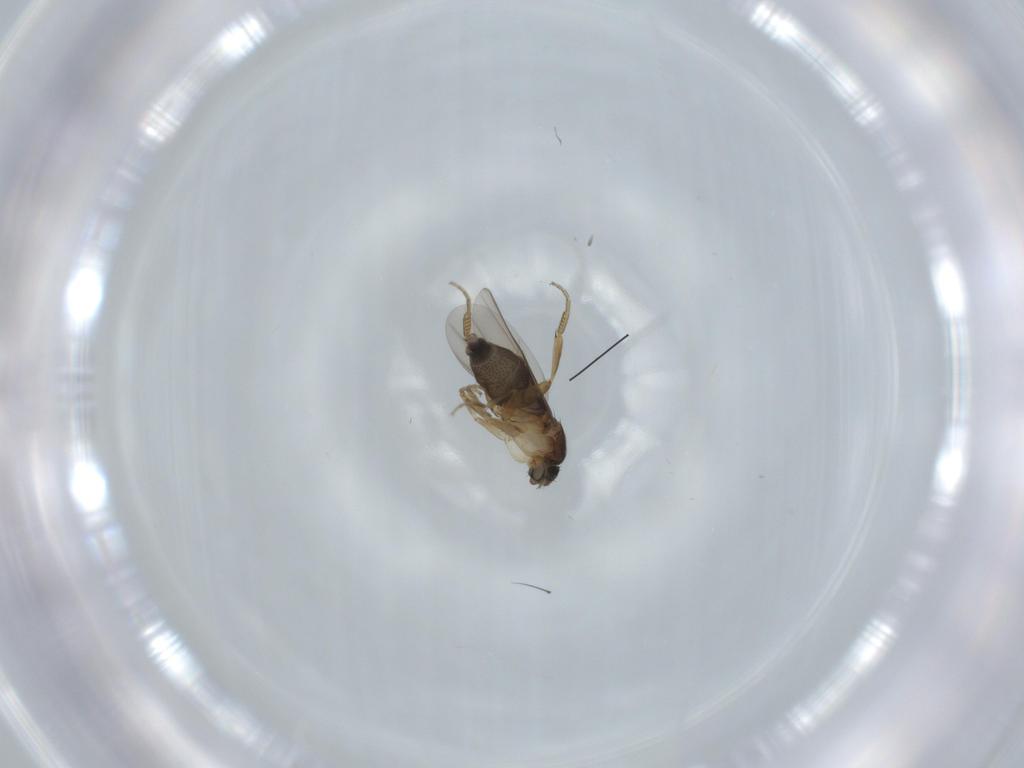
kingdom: Animalia
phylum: Arthropoda
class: Insecta
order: Diptera
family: Phoridae
